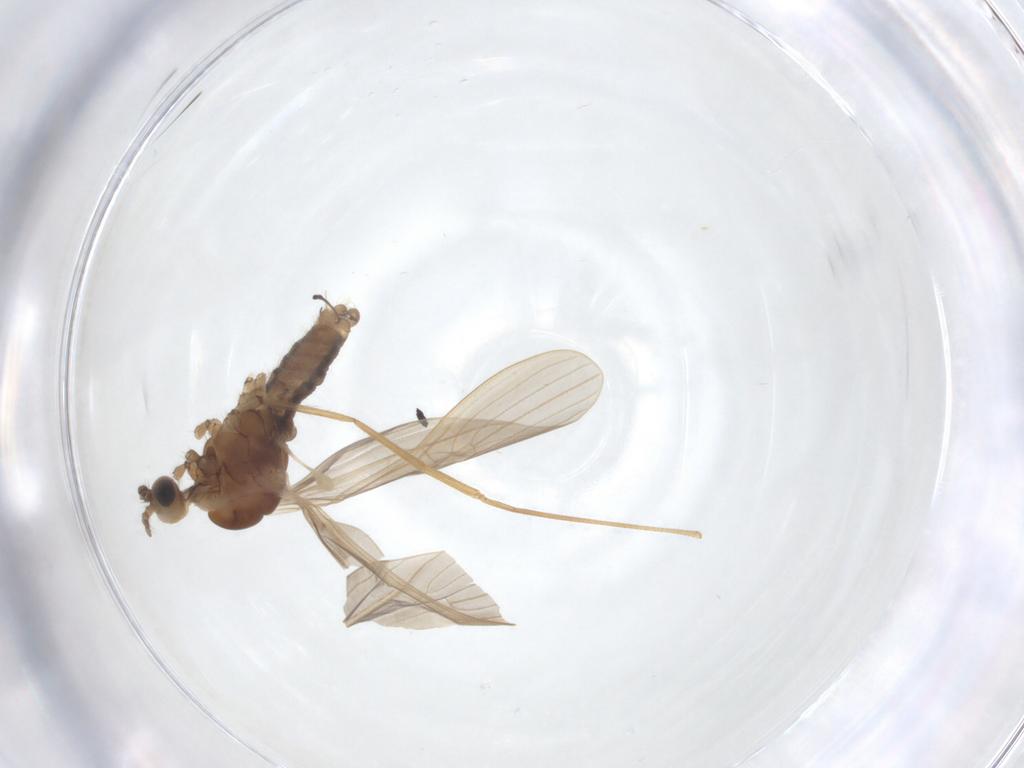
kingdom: Animalia
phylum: Arthropoda
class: Insecta
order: Diptera
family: Limoniidae
